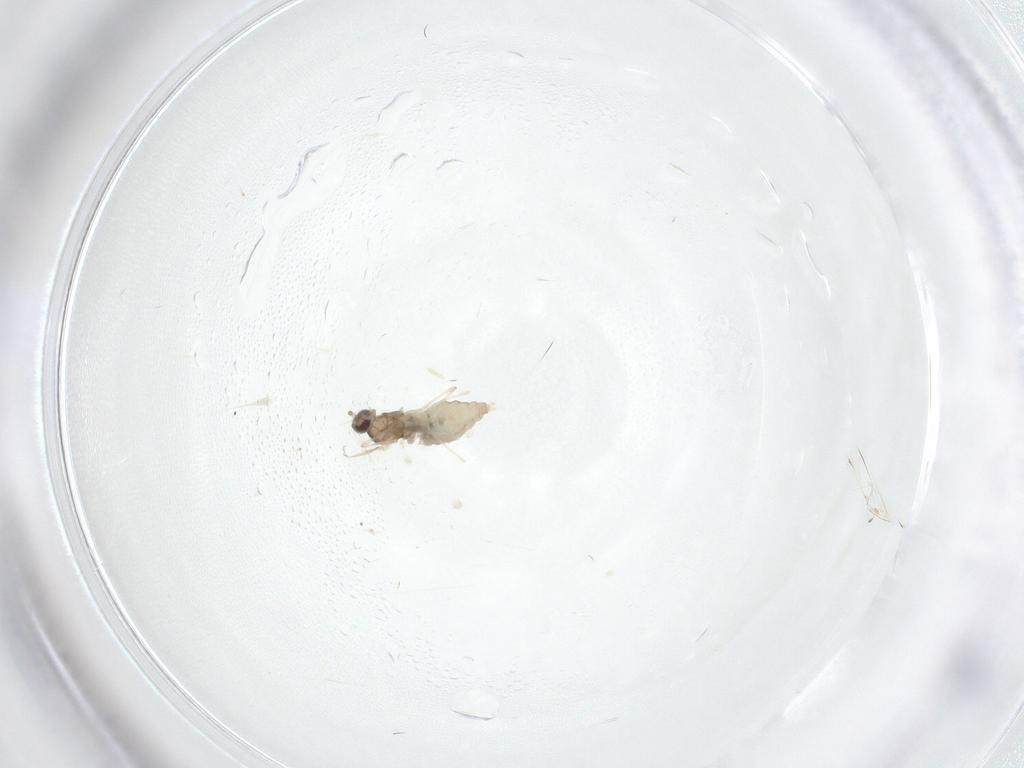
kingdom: Animalia
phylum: Arthropoda
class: Insecta
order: Diptera
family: Cecidomyiidae
